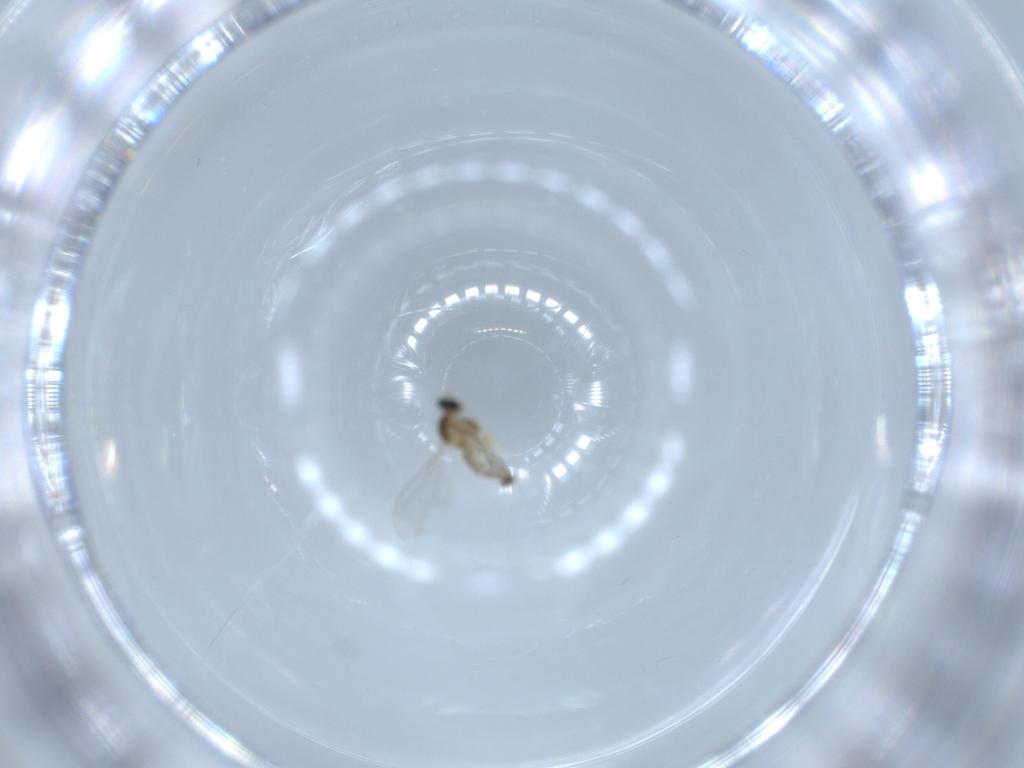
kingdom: Animalia
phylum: Arthropoda
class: Insecta
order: Diptera
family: Cecidomyiidae
